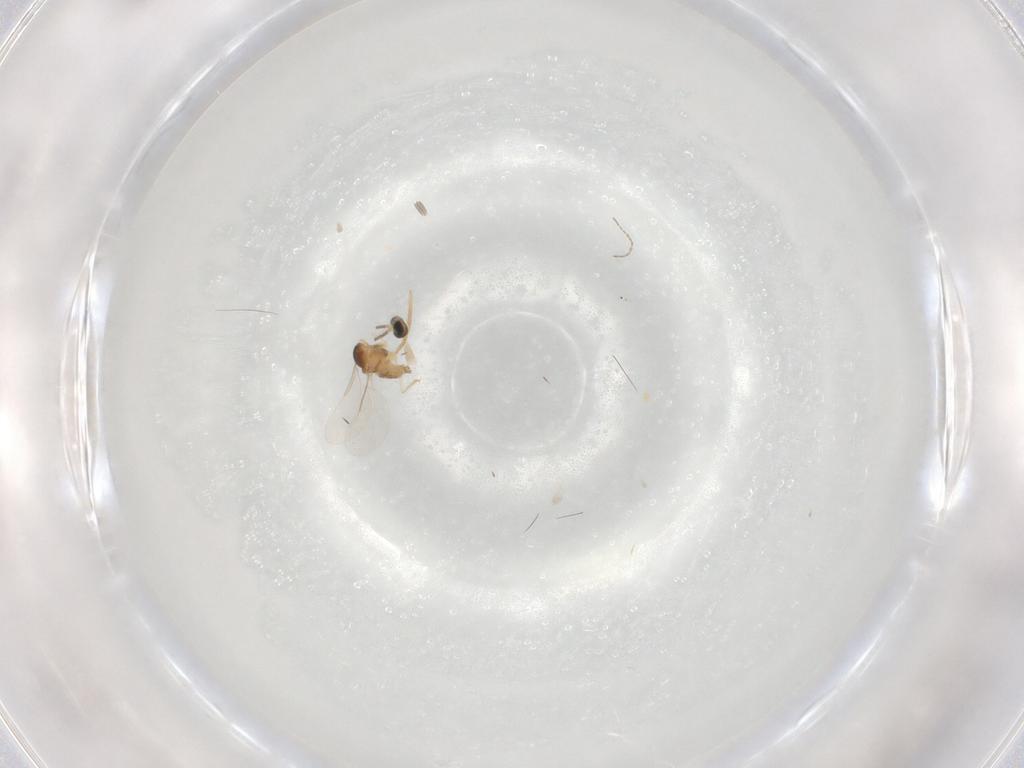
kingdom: Animalia
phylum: Arthropoda
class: Insecta
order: Diptera
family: Cecidomyiidae
